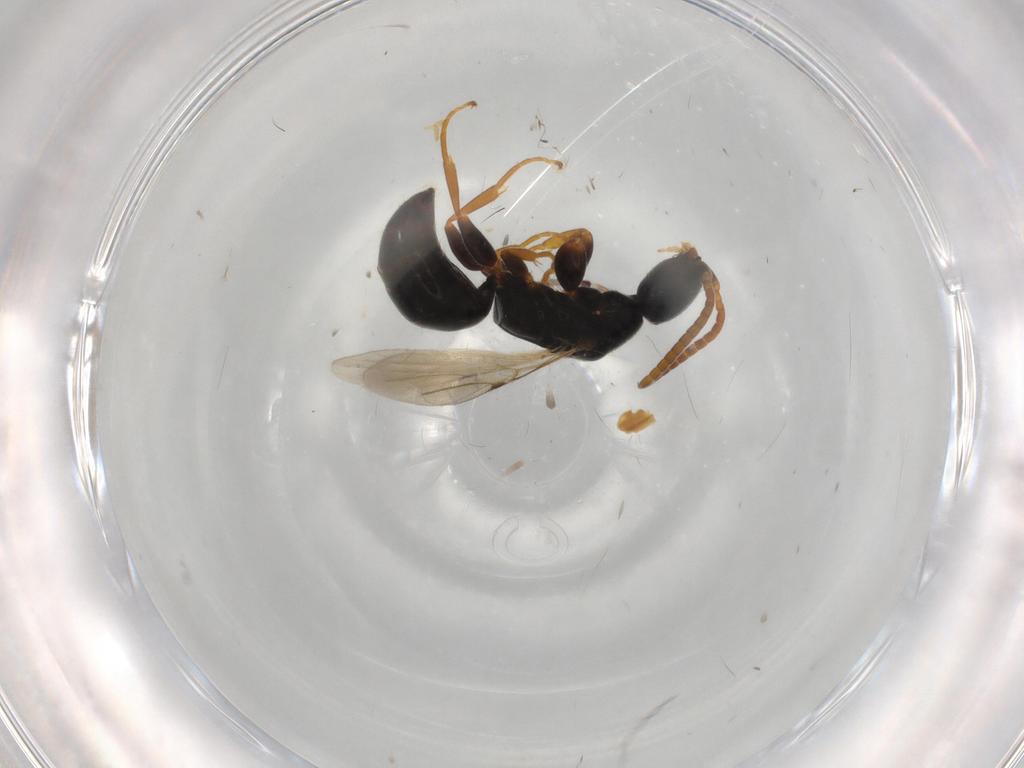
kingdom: Animalia
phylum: Arthropoda
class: Insecta
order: Hymenoptera
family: Bethylidae
